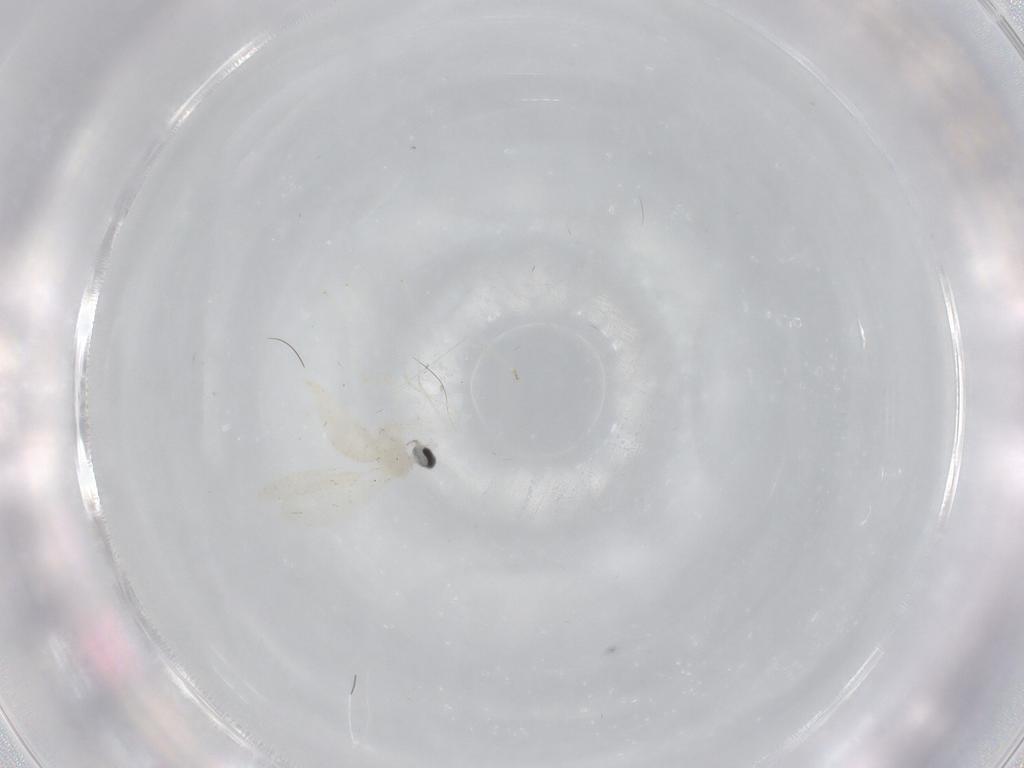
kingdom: Animalia
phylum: Arthropoda
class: Insecta
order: Diptera
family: Cecidomyiidae
